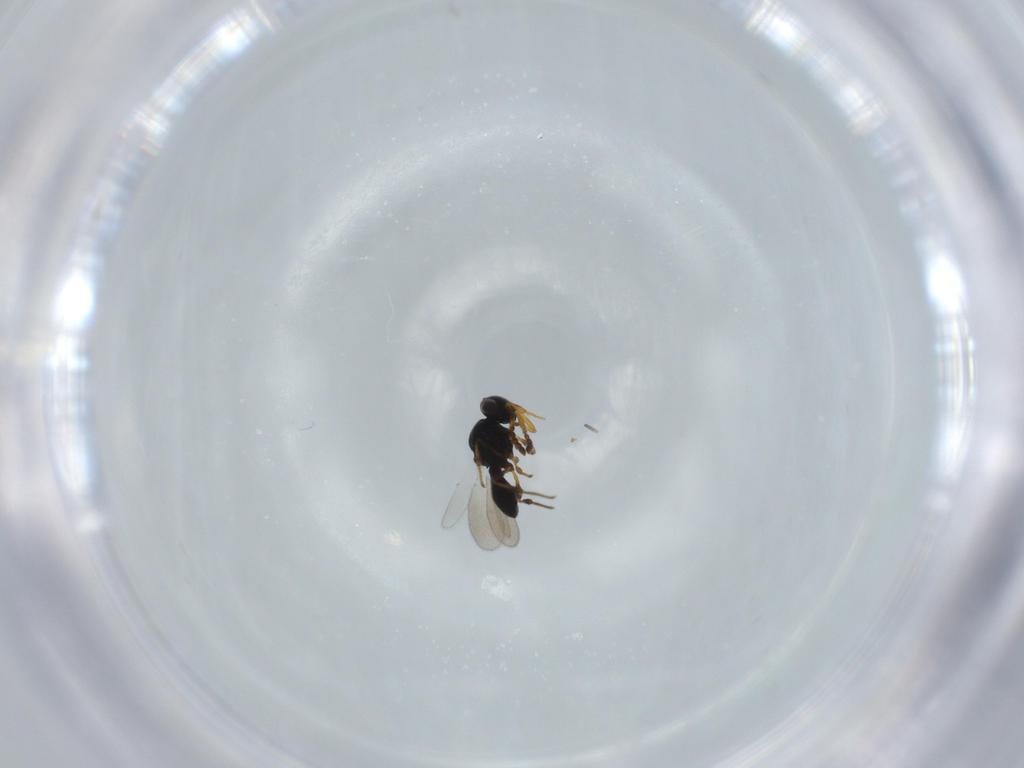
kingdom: Animalia
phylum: Arthropoda
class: Insecta
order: Hymenoptera
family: Platygastridae
